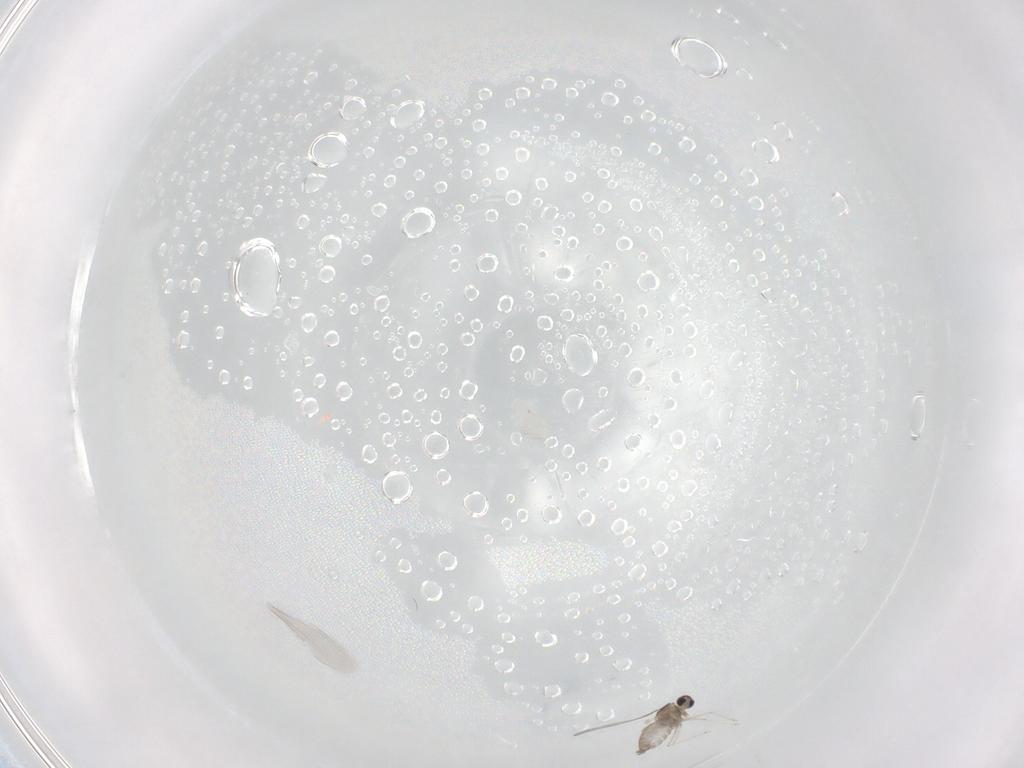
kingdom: Animalia
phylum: Arthropoda
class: Insecta
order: Diptera
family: Cecidomyiidae
